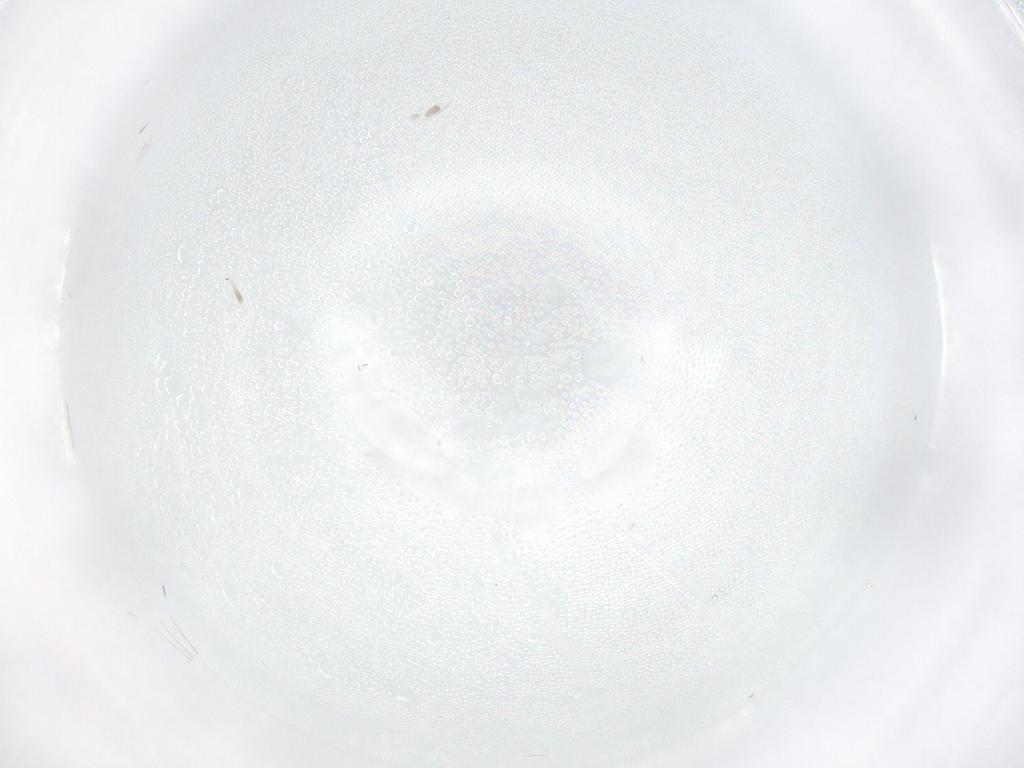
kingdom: Animalia
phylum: Arthropoda
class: Insecta
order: Hymenoptera
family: Bethylidae
